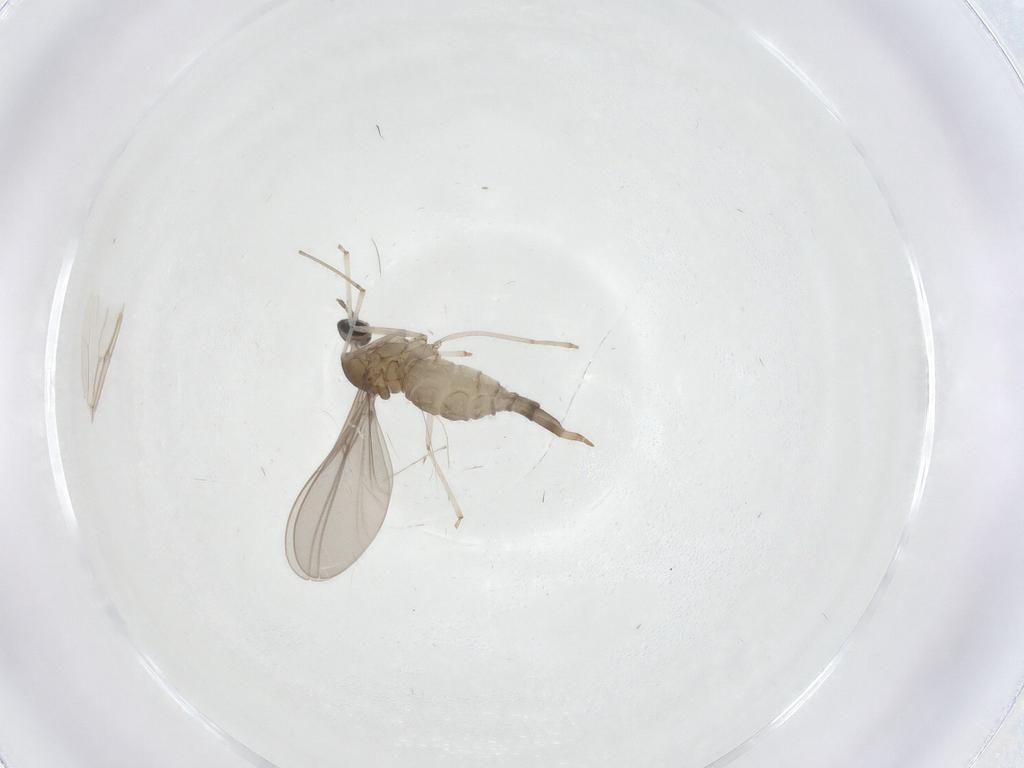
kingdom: Animalia
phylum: Arthropoda
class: Insecta
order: Diptera
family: Cecidomyiidae
